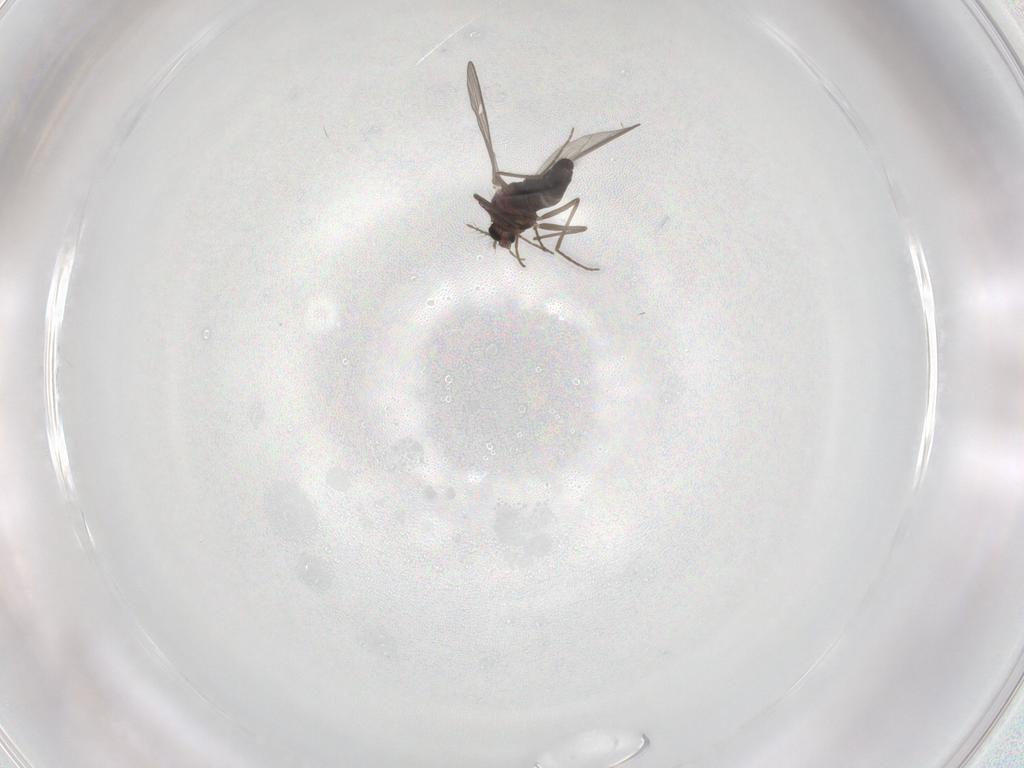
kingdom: Animalia
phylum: Arthropoda
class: Insecta
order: Diptera
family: Chironomidae
